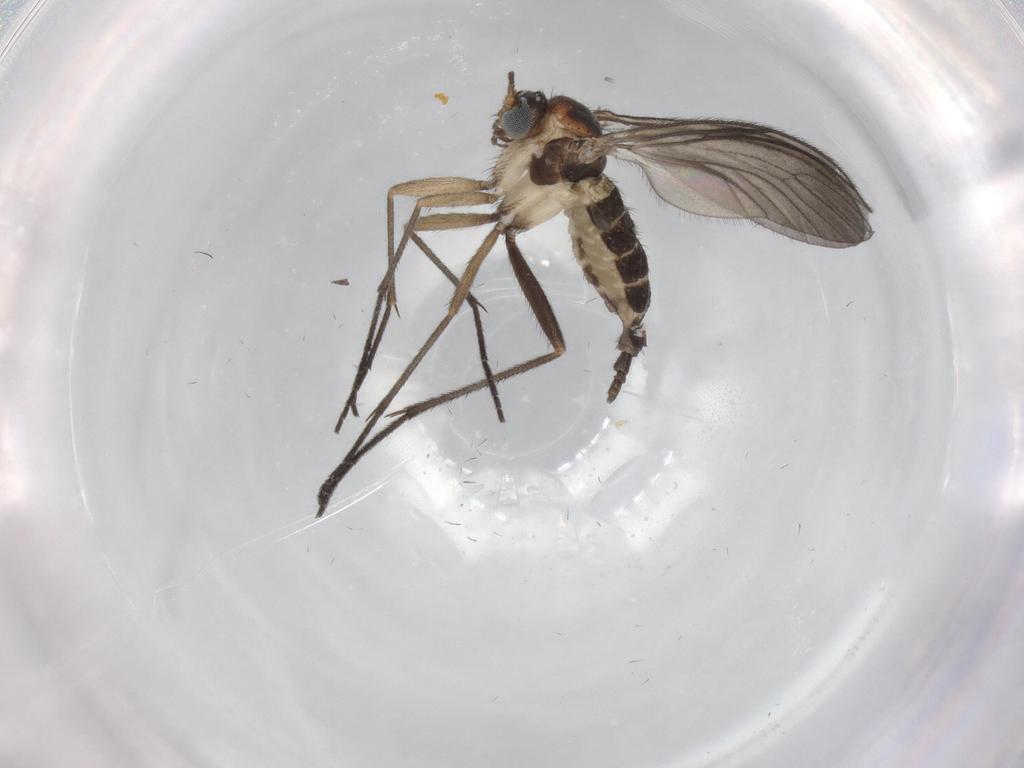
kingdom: Animalia
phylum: Arthropoda
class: Insecta
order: Diptera
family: Sciaridae
